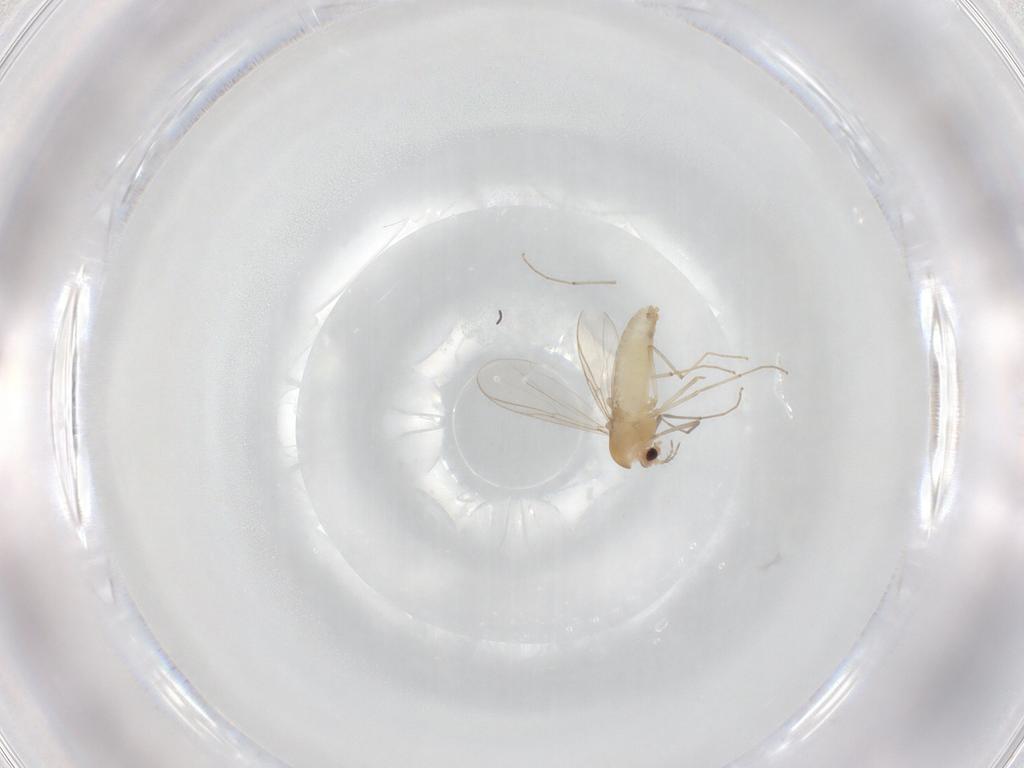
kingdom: Animalia
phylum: Arthropoda
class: Insecta
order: Diptera
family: Chironomidae
